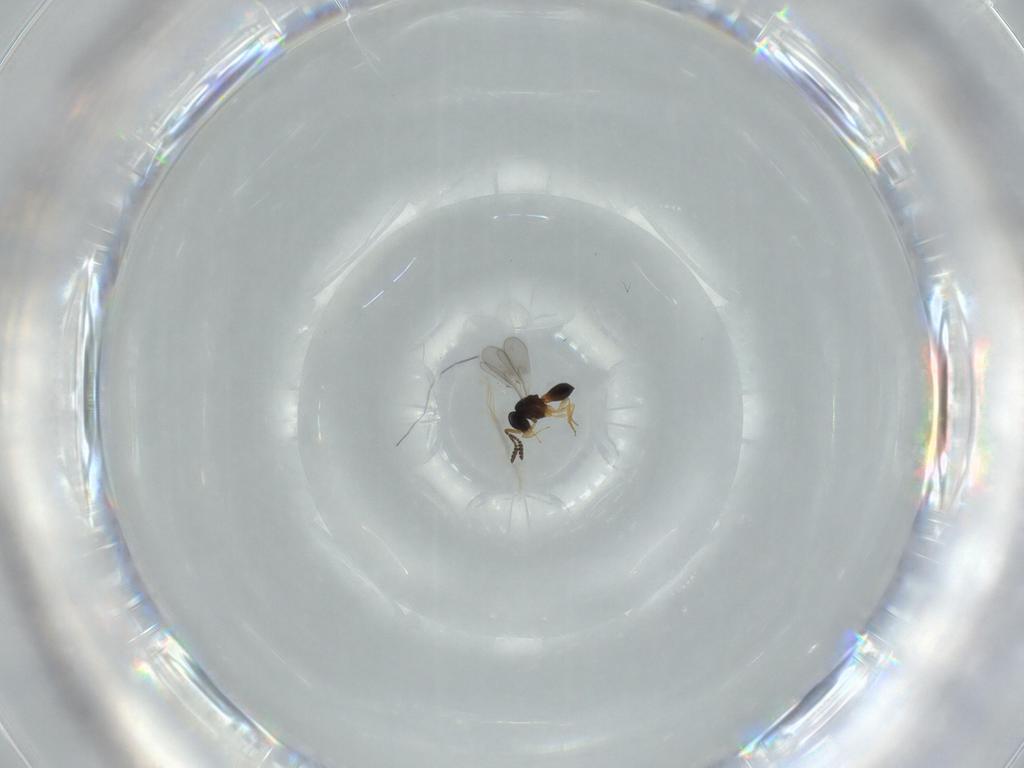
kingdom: Animalia
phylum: Arthropoda
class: Insecta
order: Hymenoptera
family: Scelionidae
